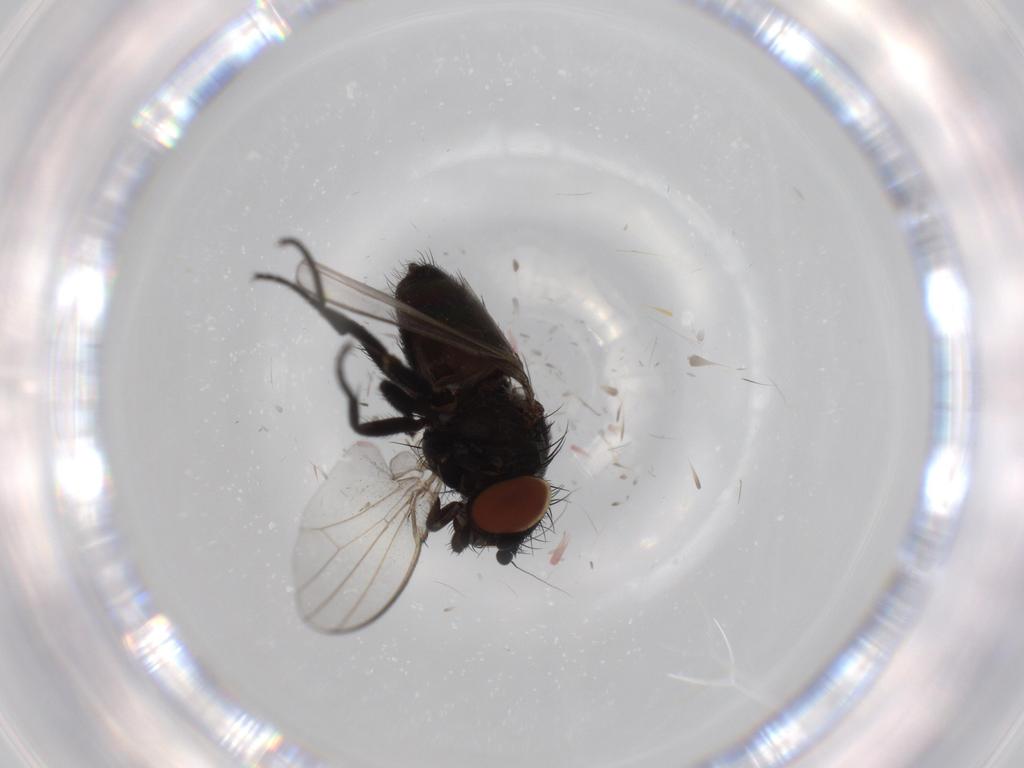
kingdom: Animalia
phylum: Arthropoda
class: Insecta
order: Diptera
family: Milichiidae
